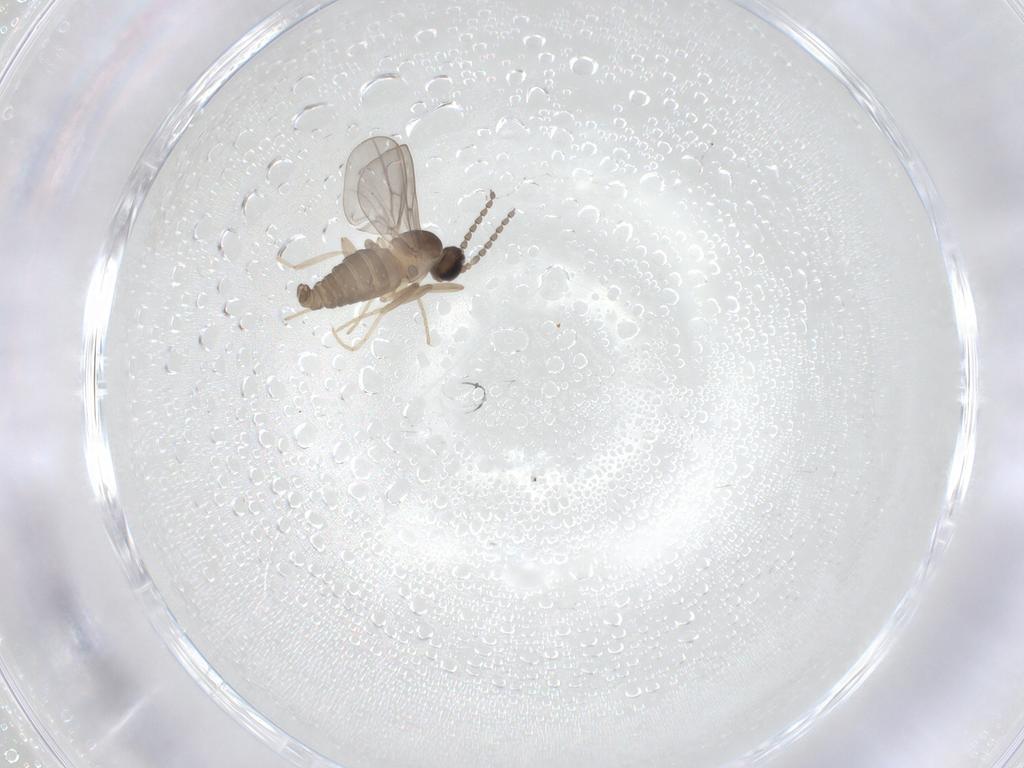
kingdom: Animalia
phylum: Arthropoda
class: Insecta
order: Diptera
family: Cecidomyiidae
